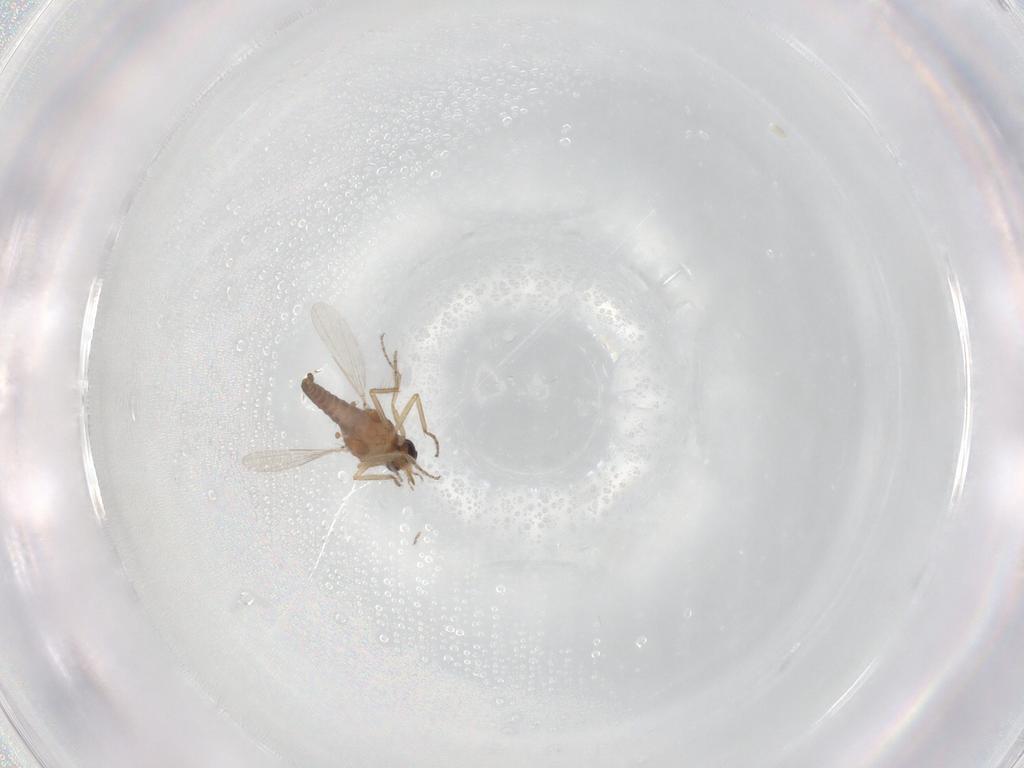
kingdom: Animalia
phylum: Arthropoda
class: Insecta
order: Diptera
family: Ceratopogonidae
